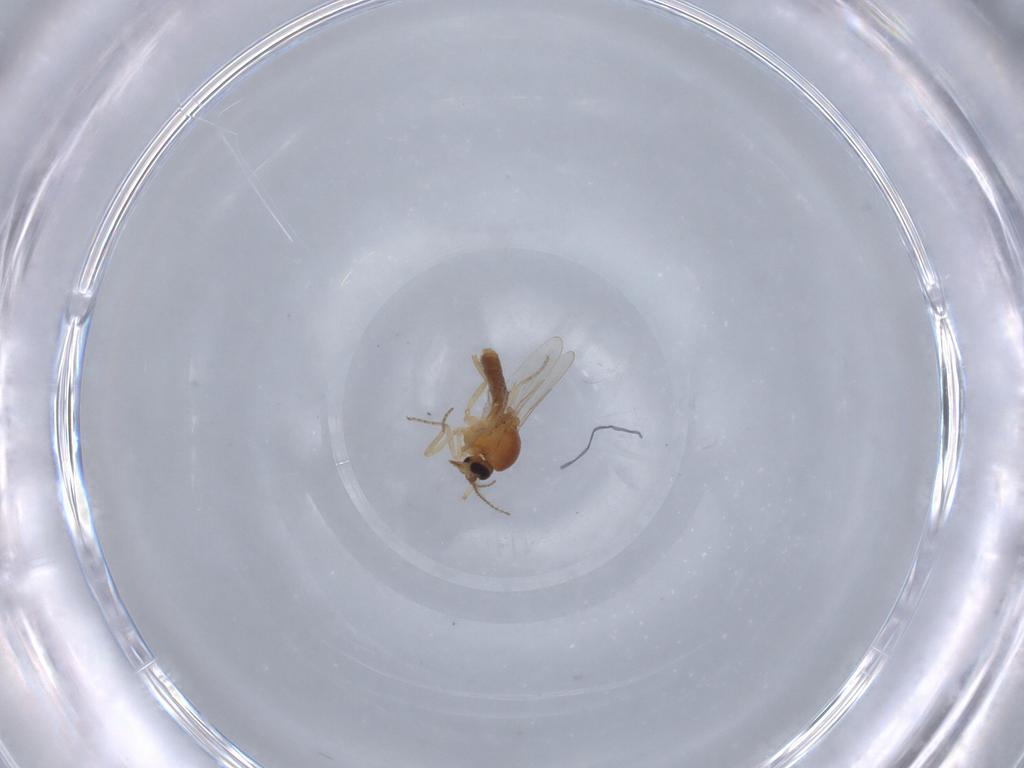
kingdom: Animalia
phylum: Arthropoda
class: Insecta
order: Diptera
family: Ceratopogonidae
